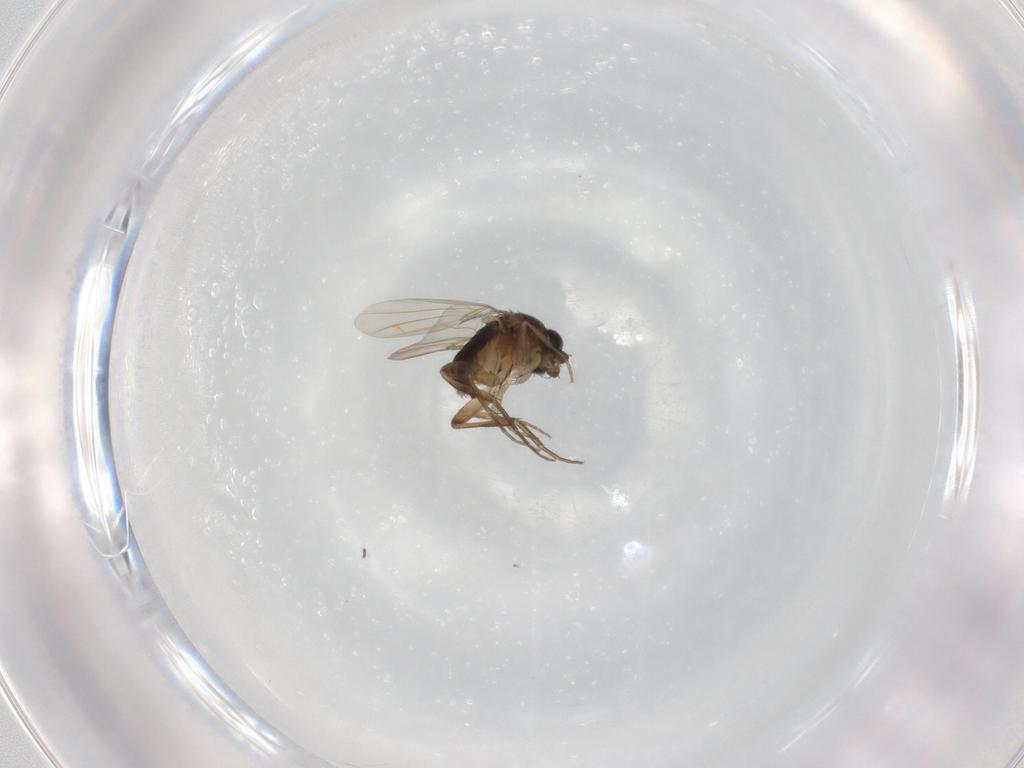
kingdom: Animalia
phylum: Arthropoda
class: Insecta
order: Diptera
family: Phoridae
